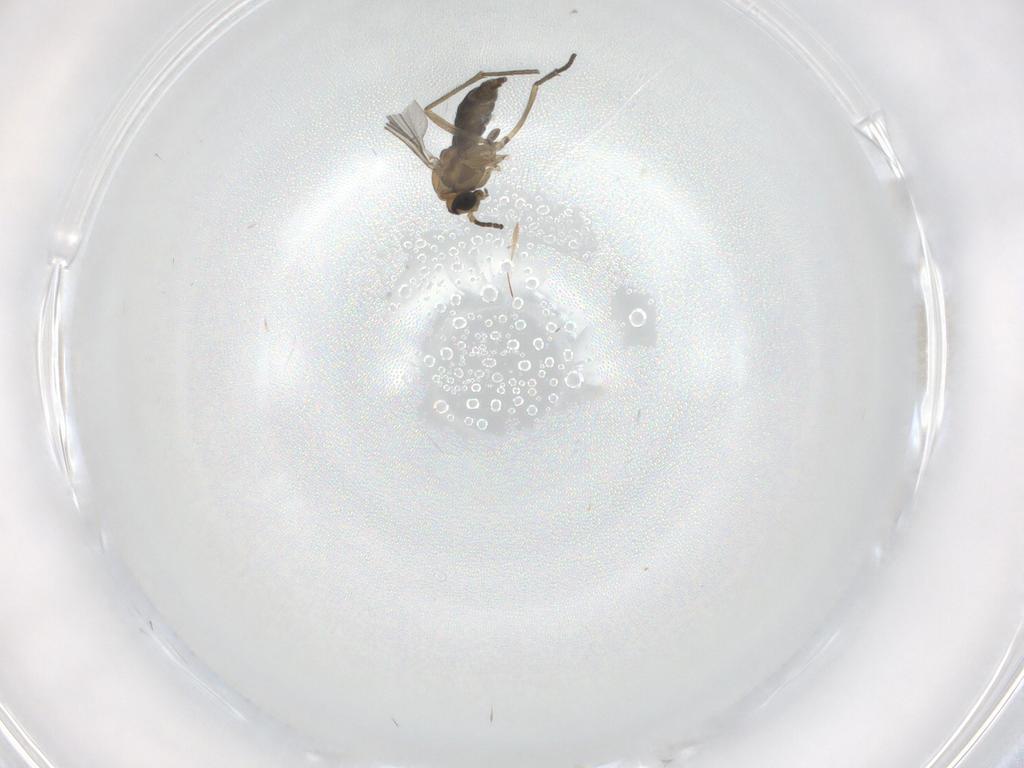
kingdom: Animalia
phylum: Arthropoda
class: Insecta
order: Diptera
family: Sciaridae
